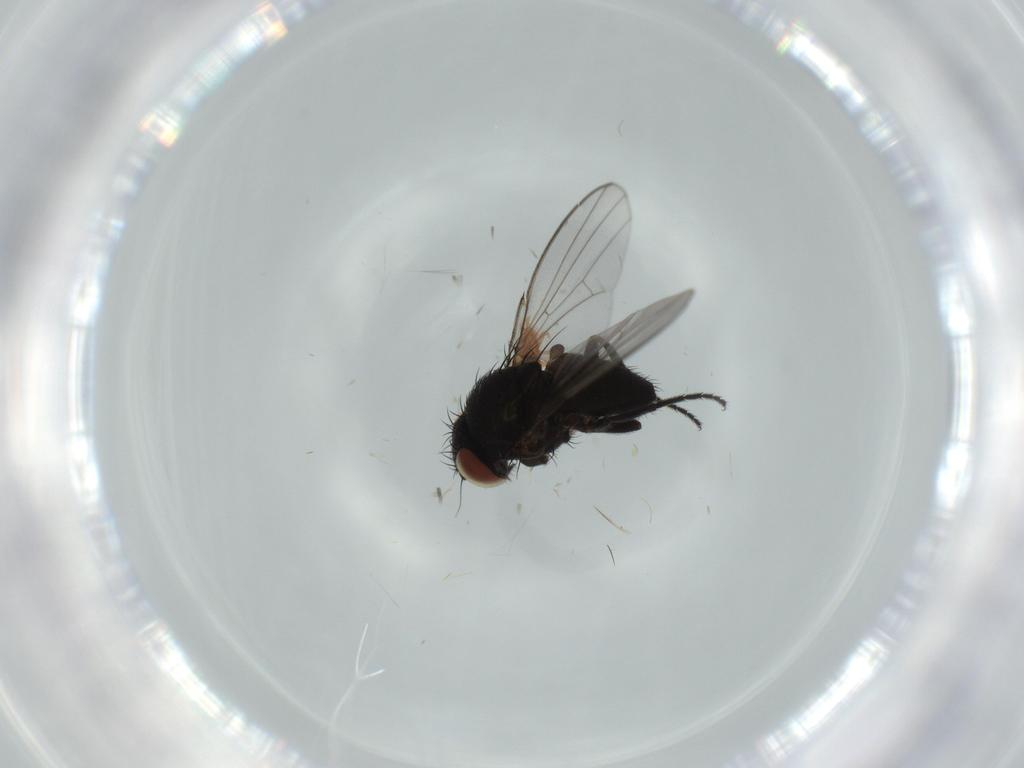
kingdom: Animalia
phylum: Arthropoda
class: Insecta
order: Diptera
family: Milichiidae
